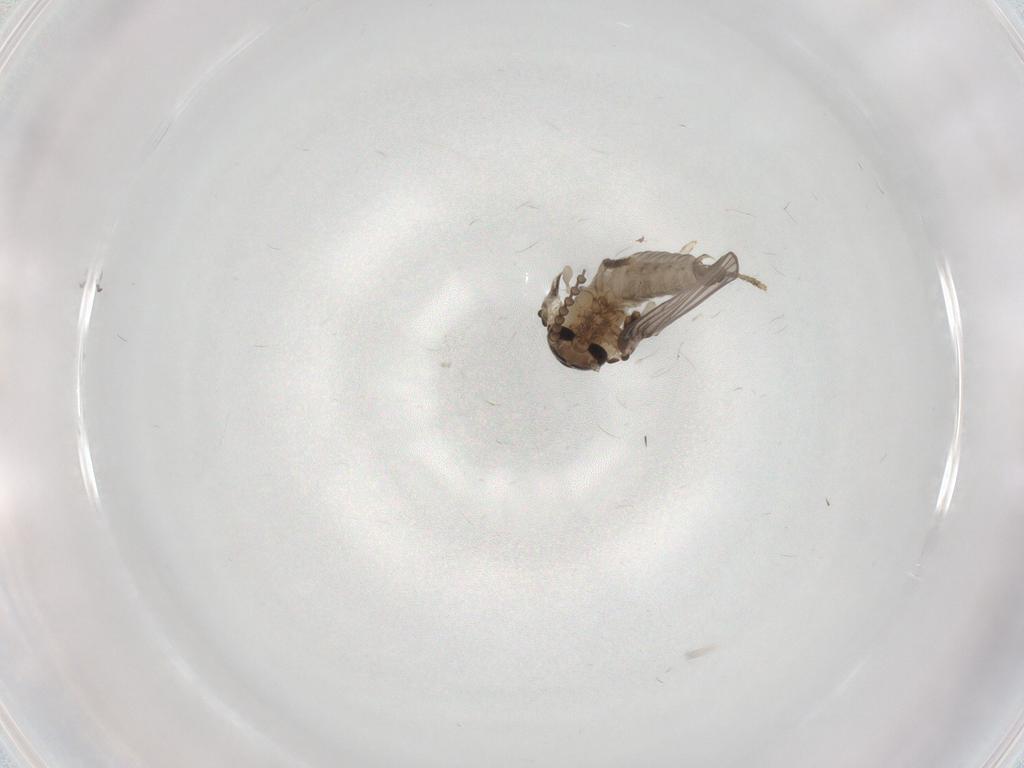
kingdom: Animalia
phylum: Arthropoda
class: Insecta
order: Diptera
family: Psychodidae
